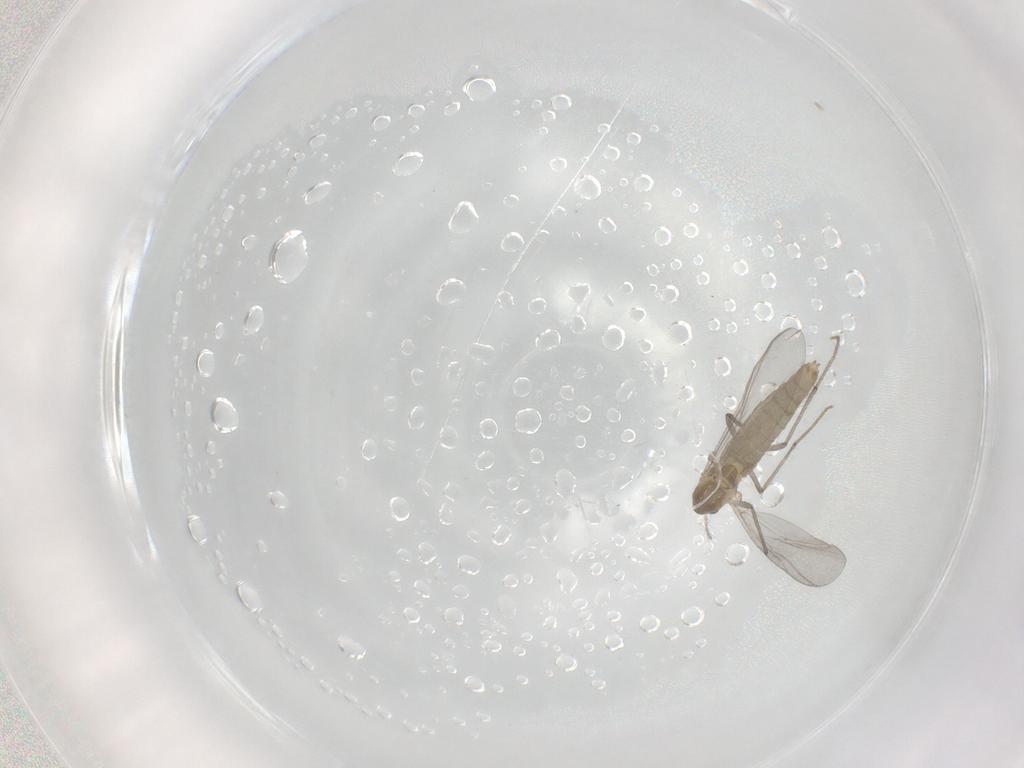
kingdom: Animalia
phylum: Arthropoda
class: Insecta
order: Diptera
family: Chironomidae
